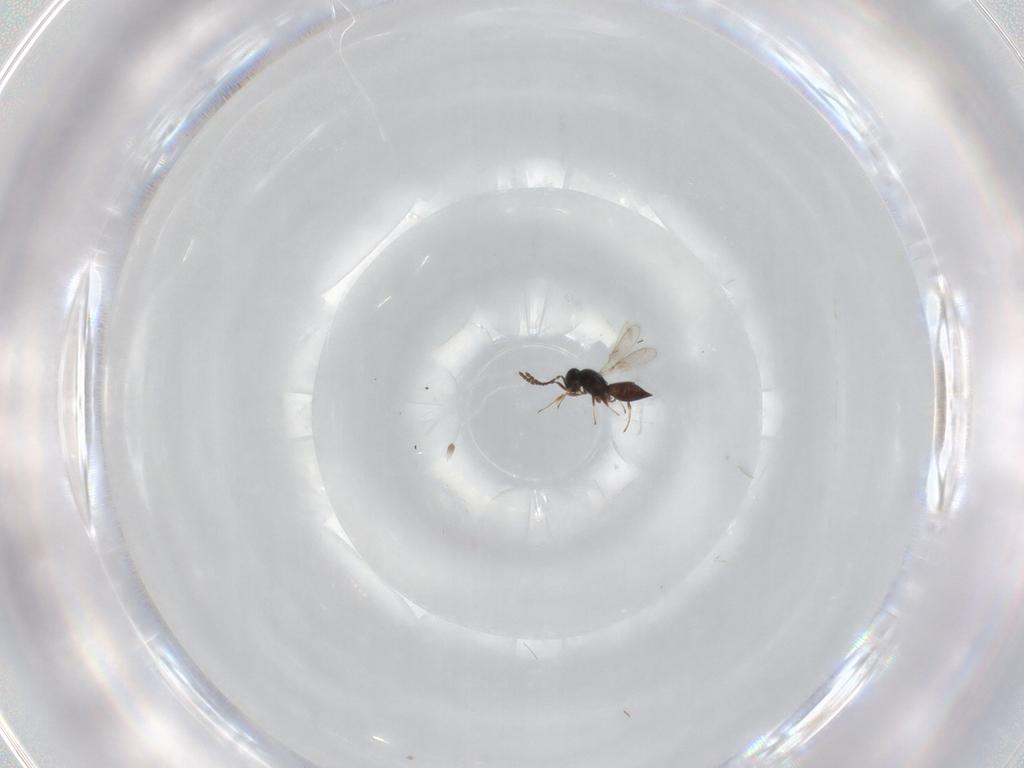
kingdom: Animalia
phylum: Arthropoda
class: Insecta
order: Hymenoptera
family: Scelionidae
